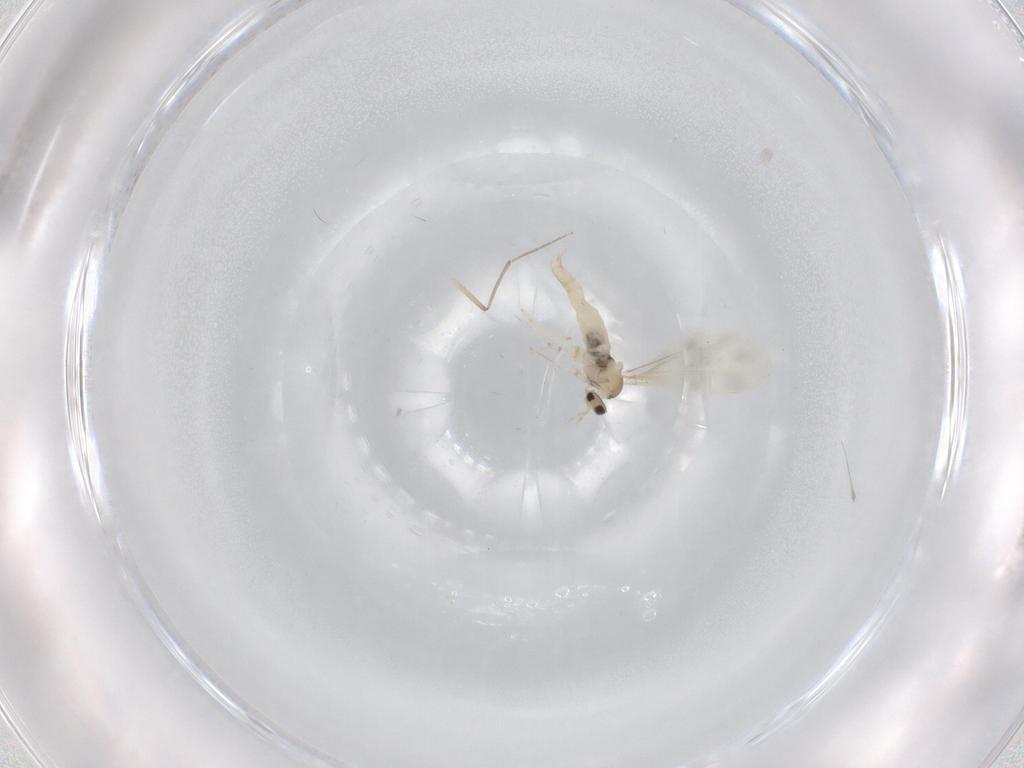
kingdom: Animalia
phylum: Arthropoda
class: Insecta
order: Diptera
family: Cecidomyiidae
